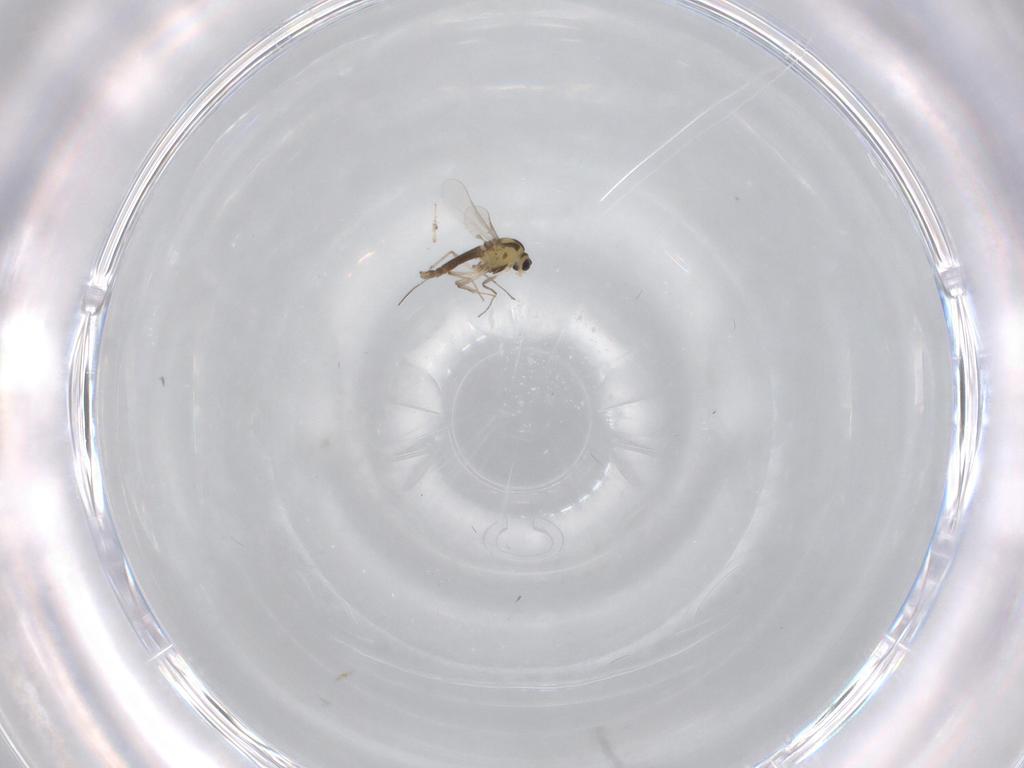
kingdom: Animalia
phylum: Arthropoda
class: Insecta
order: Diptera
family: Chironomidae
